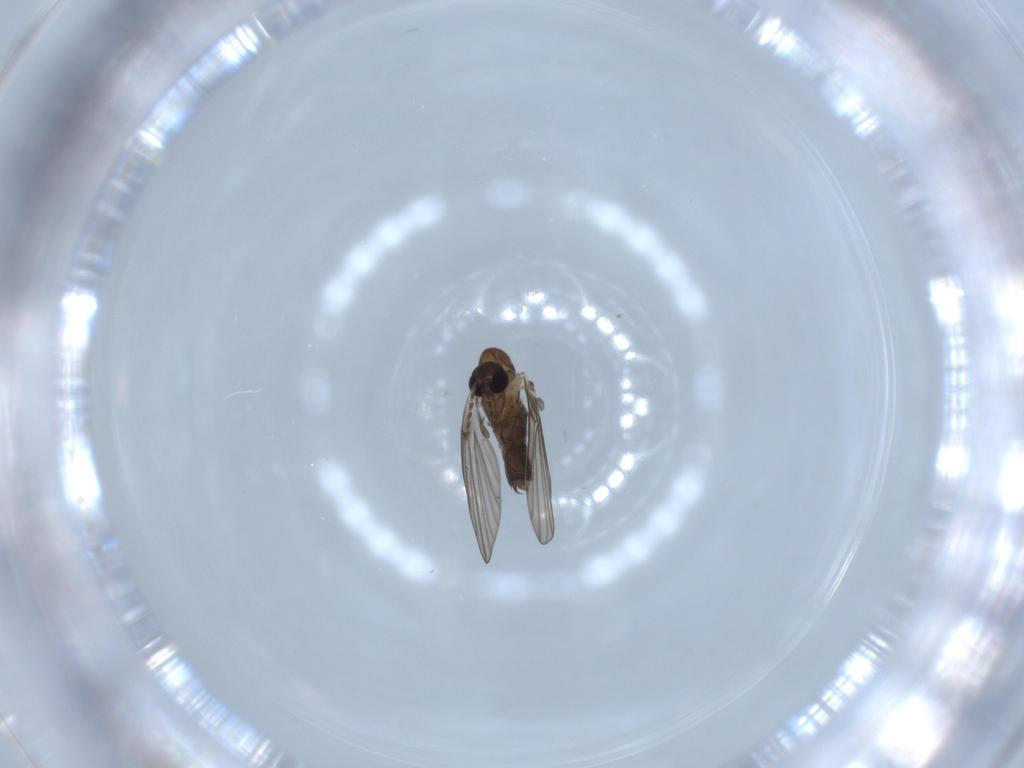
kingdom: Animalia
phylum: Arthropoda
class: Insecta
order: Diptera
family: Psychodidae
